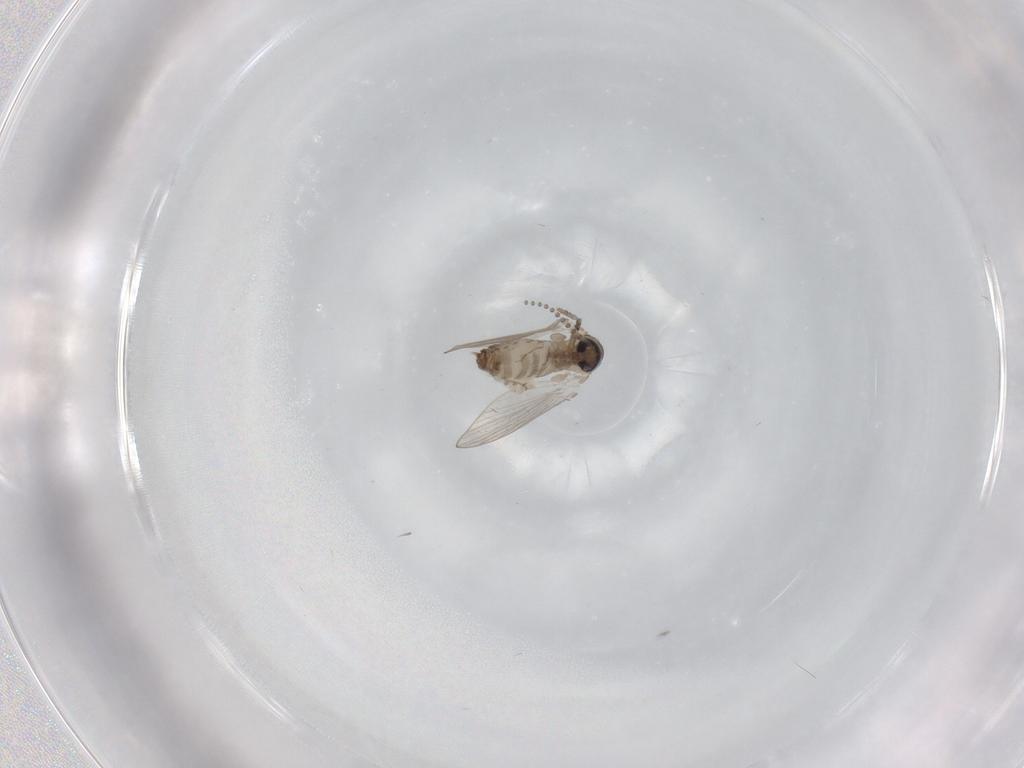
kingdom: Animalia
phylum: Arthropoda
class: Insecta
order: Diptera
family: Psychodidae
